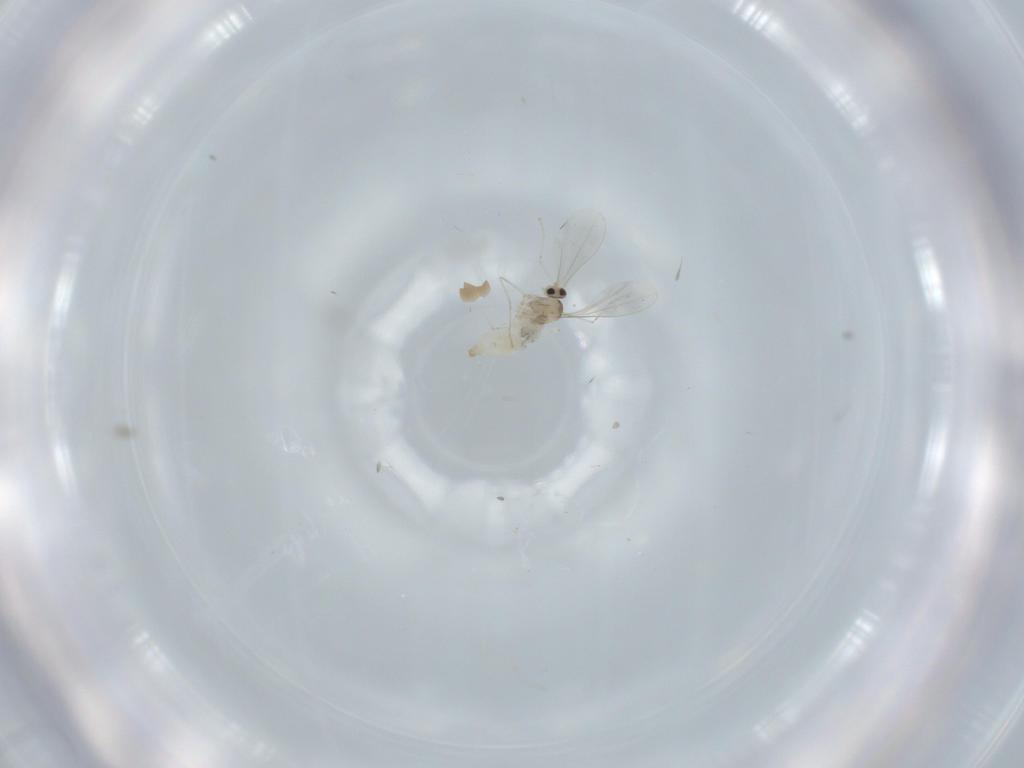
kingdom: Animalia
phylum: Arthropoda
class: Insecta
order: Diptera
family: Cecidomyiidae
